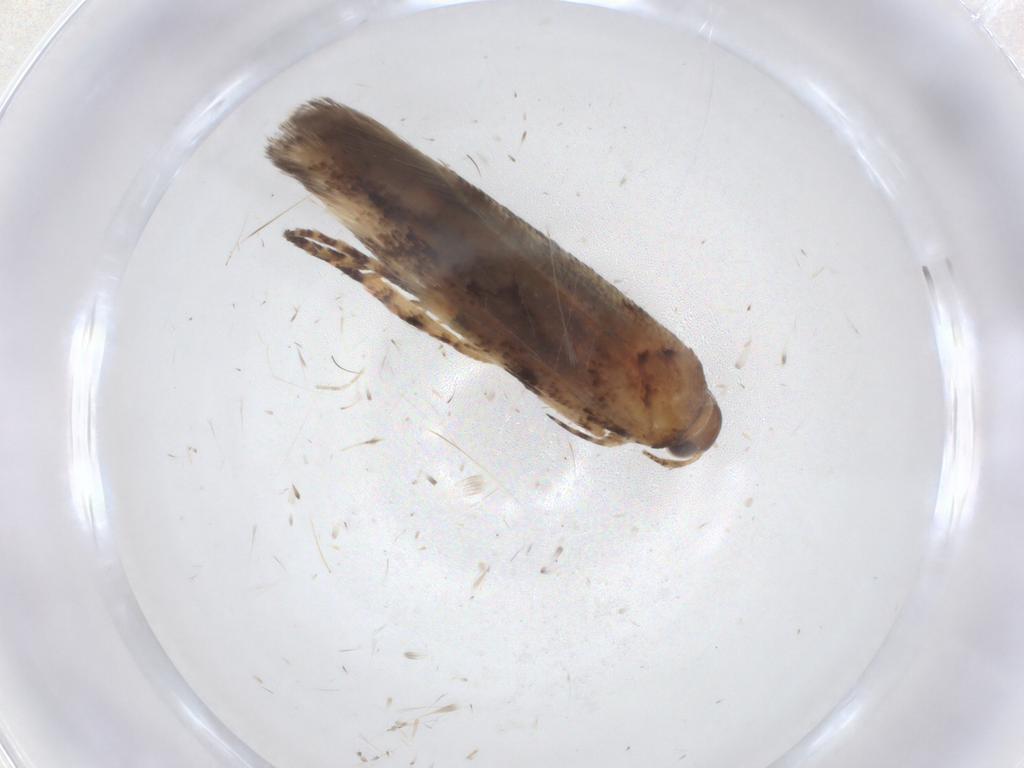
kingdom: Animalia
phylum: Arthropoda
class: Insecta
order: Lepidoptera
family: Gelechiidae
